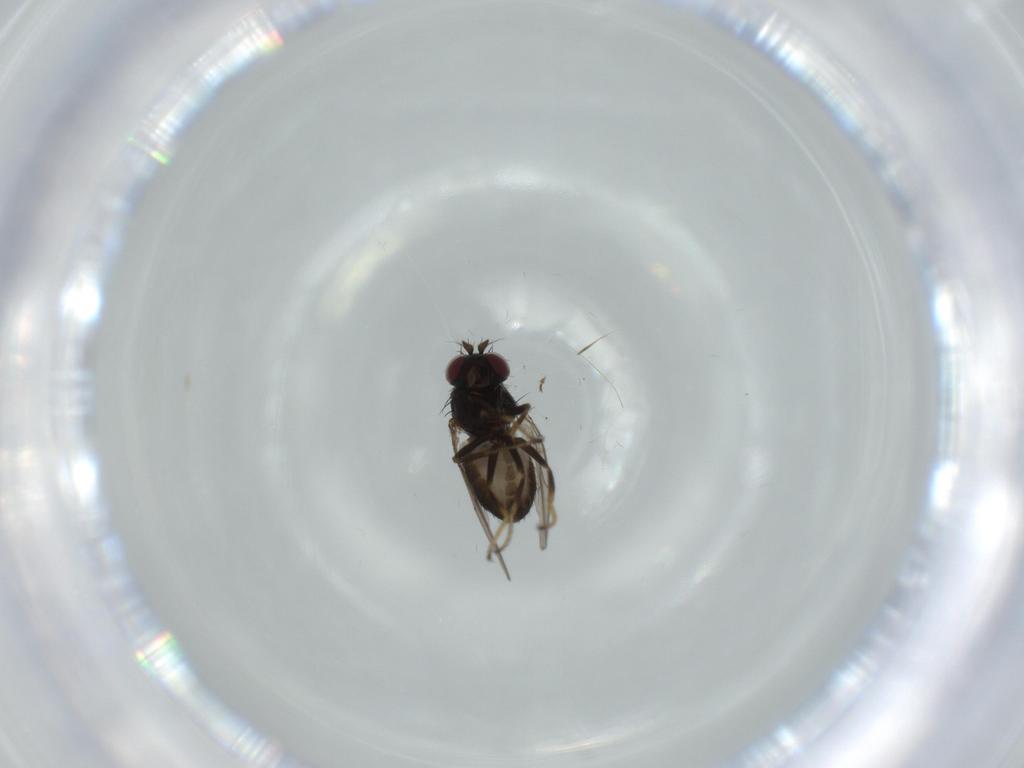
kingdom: Animalia
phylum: Arthropoda
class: Insecta
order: Diptera
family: Ephydridae
